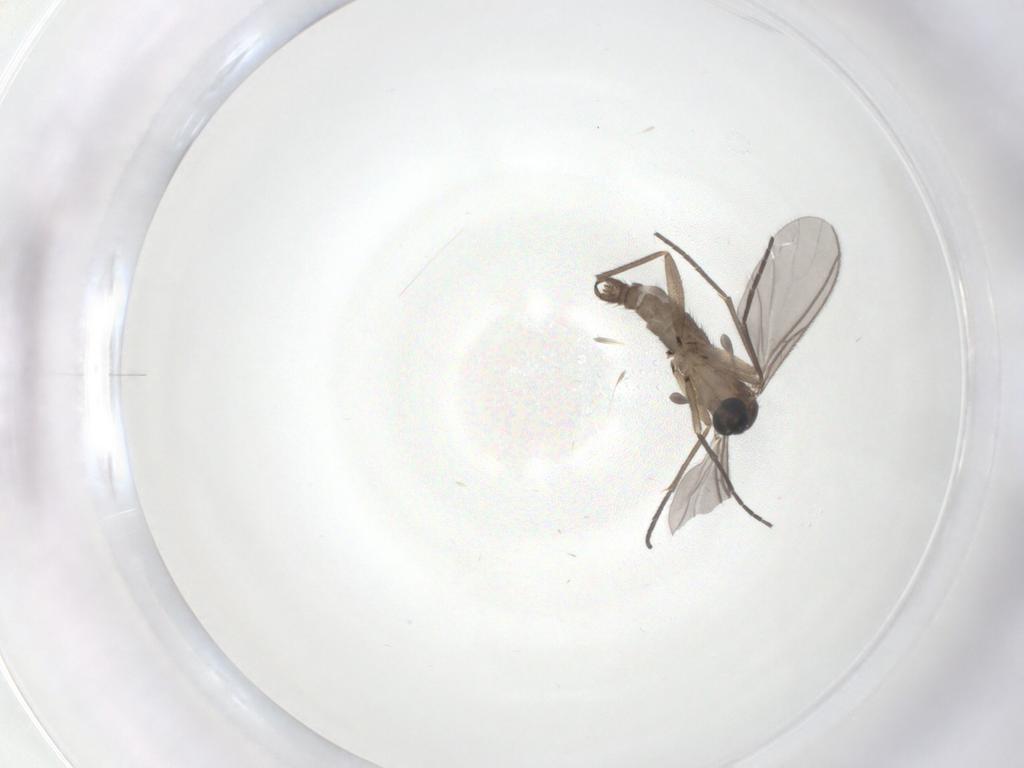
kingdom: Animalia
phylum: Arthropoda
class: Insecta
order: Diptera
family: Sciaridae
